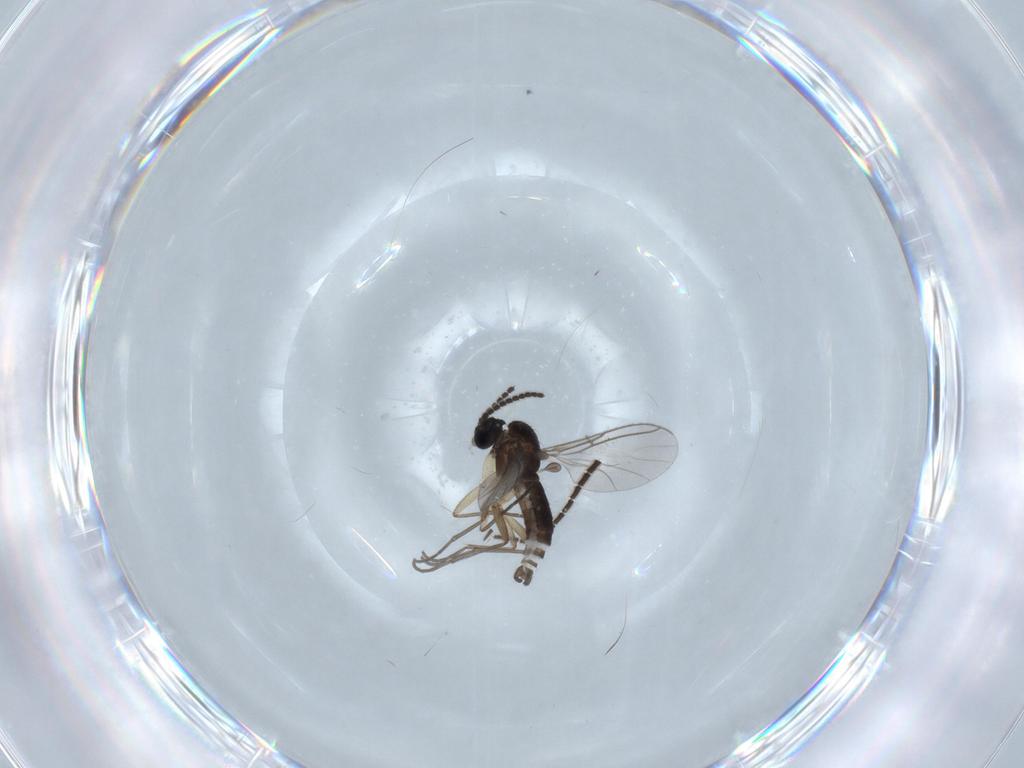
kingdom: Animalia
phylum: Arthropoda
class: Insecta
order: Diptera
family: Sciaridae
